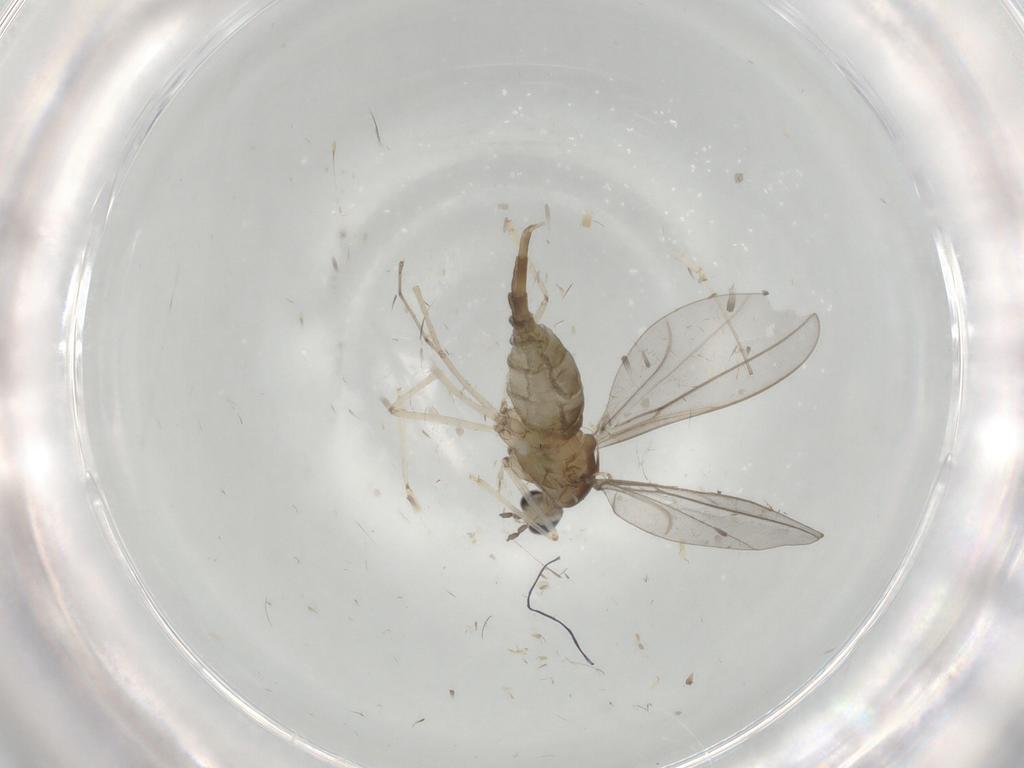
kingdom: Animalia
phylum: Arthropoda
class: Insecta
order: Diptera
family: Cecidomyiidae
